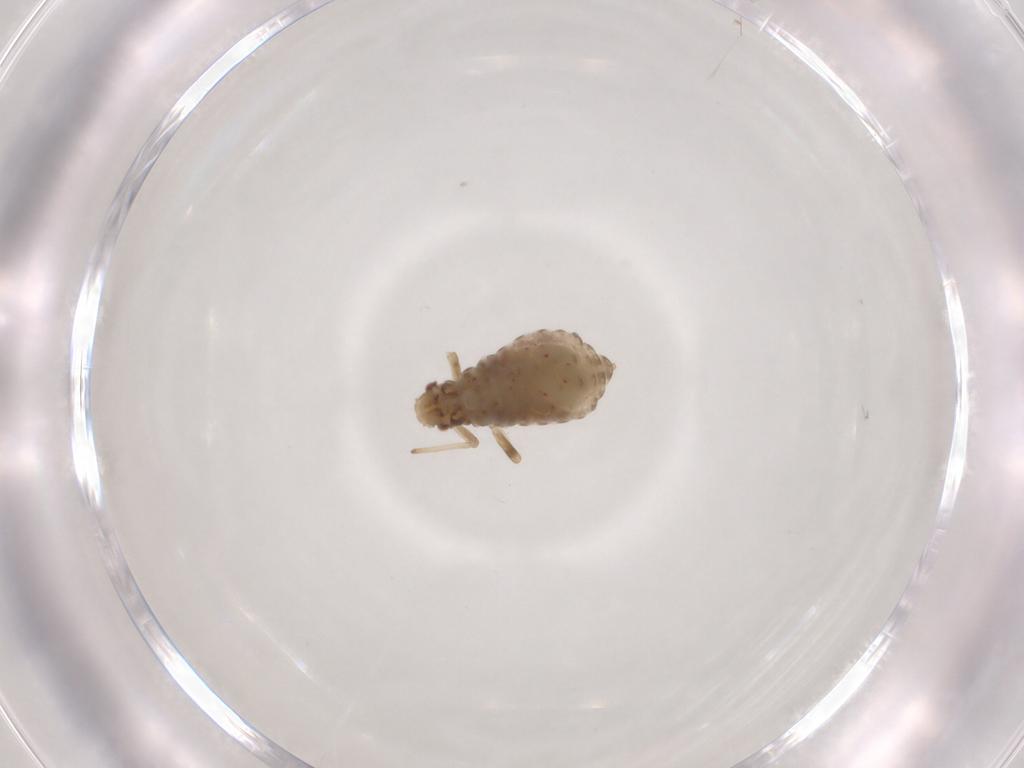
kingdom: Animalia
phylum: Arthropoda
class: Insecta
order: Hemiptera
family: Aphididae
